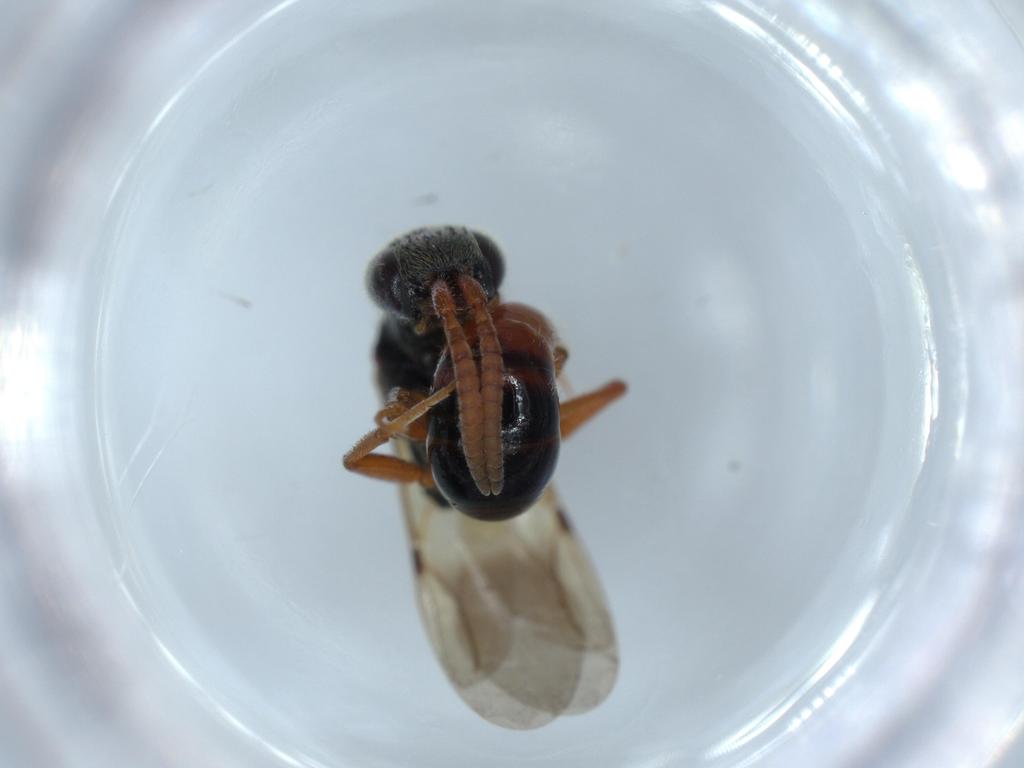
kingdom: Animalia
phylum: Arthropoda
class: Insecta
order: Hymenoptera
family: Bethylidae
